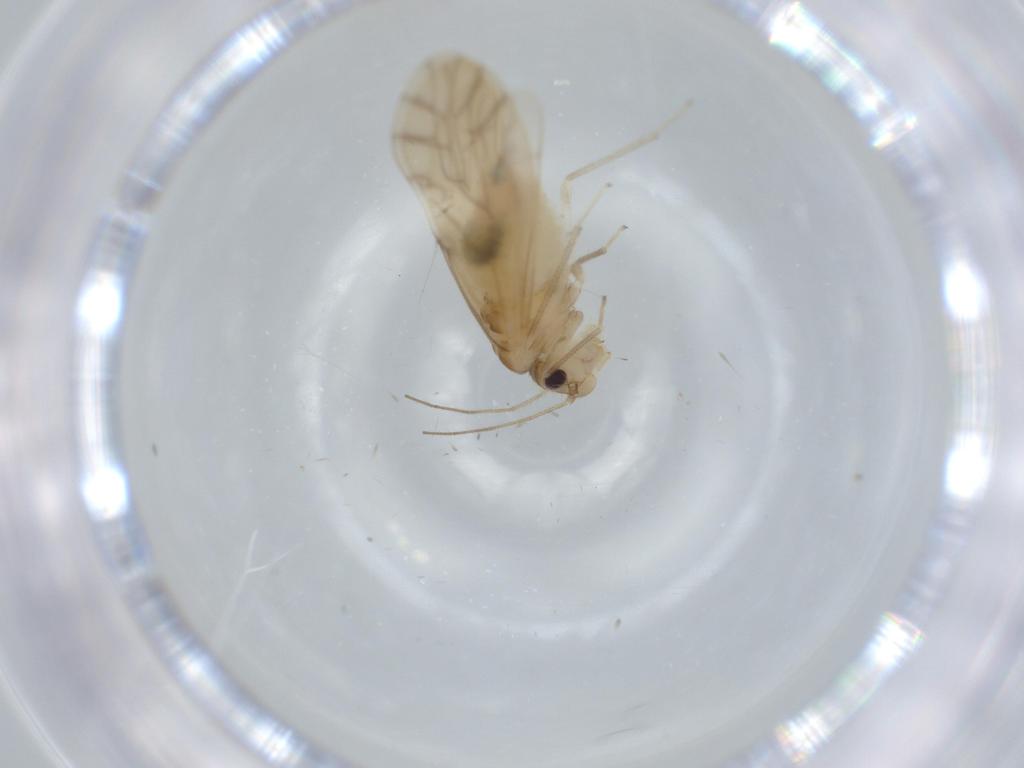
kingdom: Animalia
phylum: Arthropoda
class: Insecta
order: Psocodea
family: Caeciliusidae
